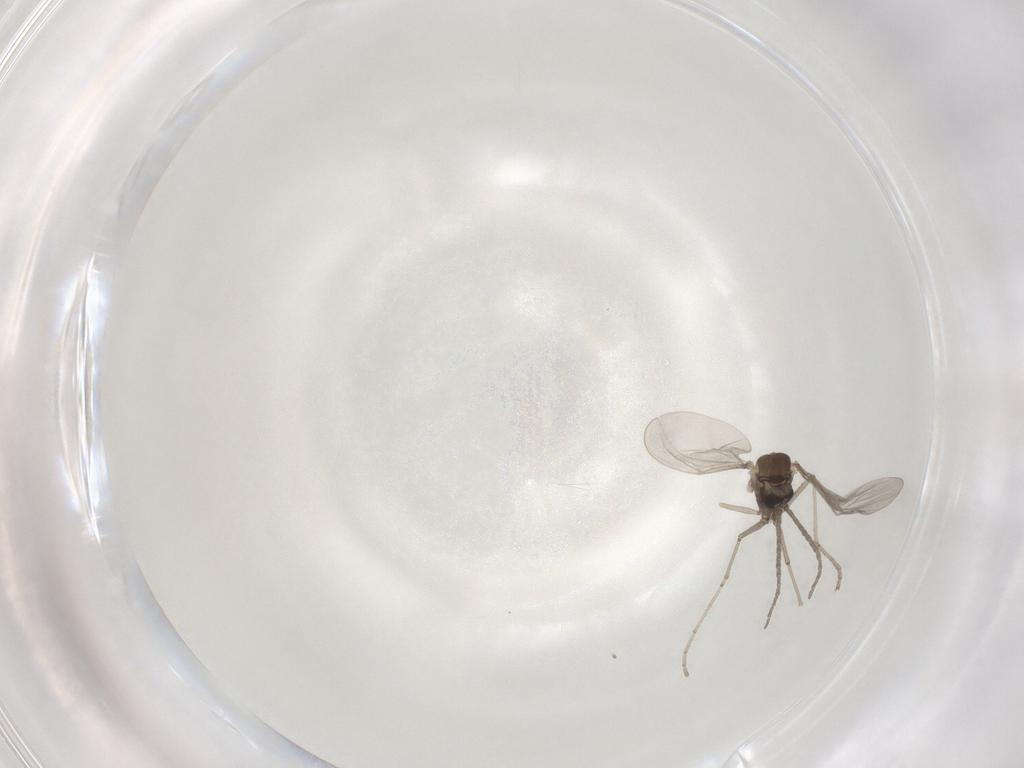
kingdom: Animalia
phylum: Arthropoda
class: Insecta
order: Diptera
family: Cecidomyiidae
